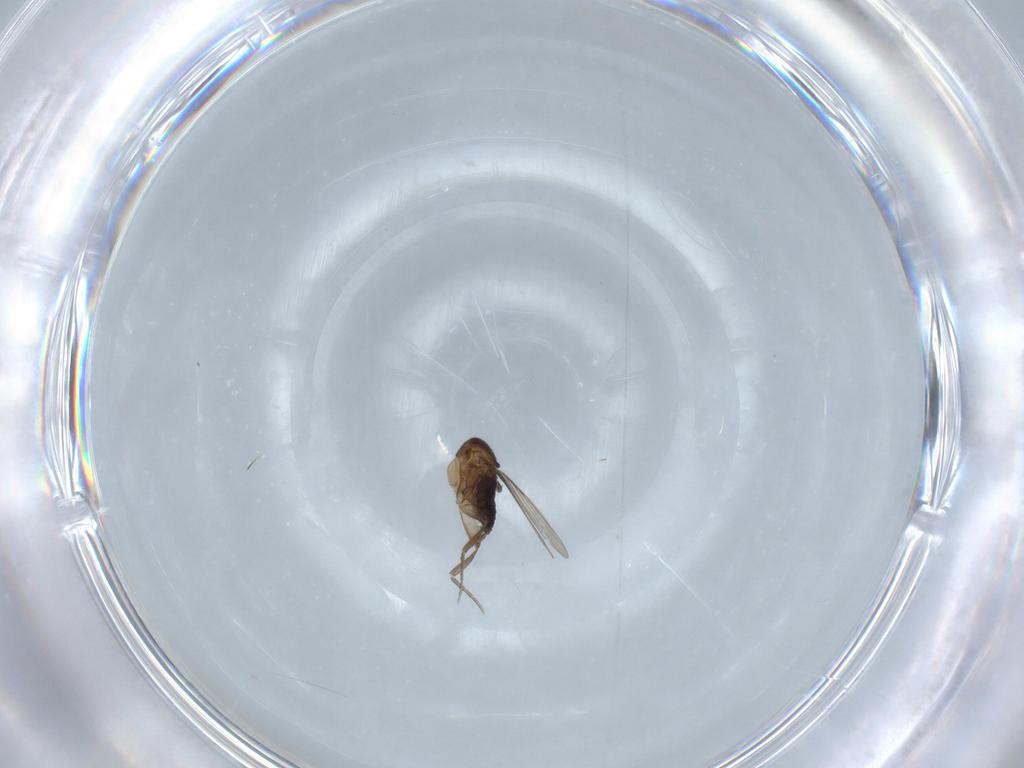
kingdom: Animalia
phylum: Arthropoda
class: Insecta
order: Diptera
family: Phoridae
